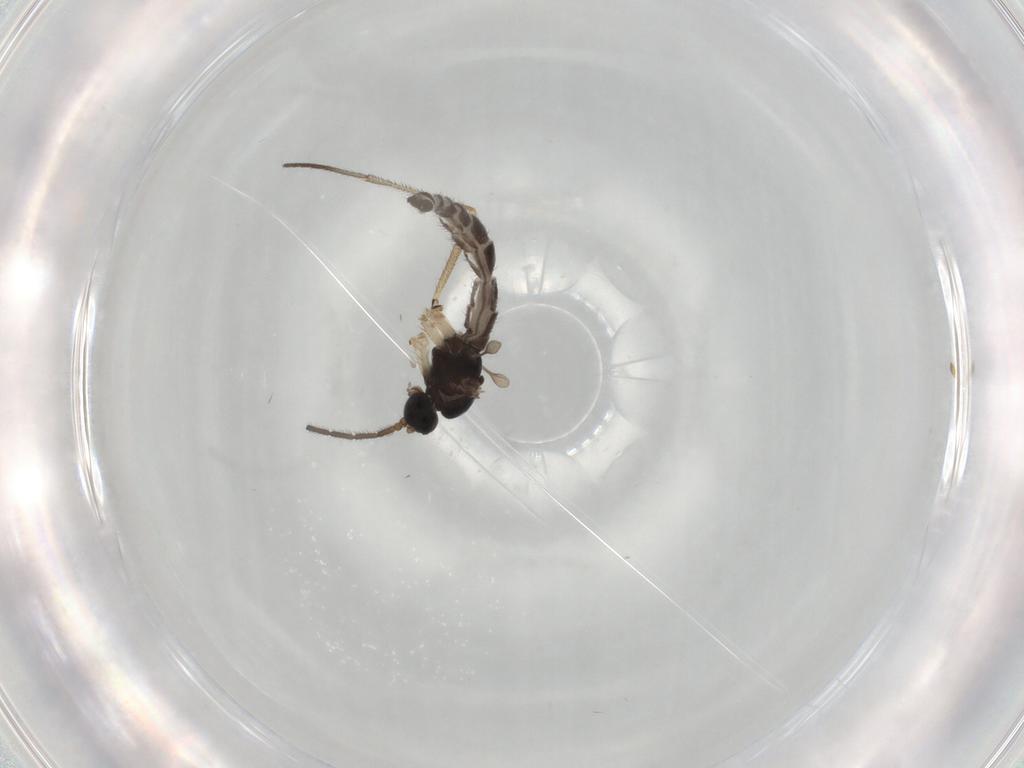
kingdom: Animalia
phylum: Arthropoda
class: Insecta
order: Diptera
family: Sciaridae
